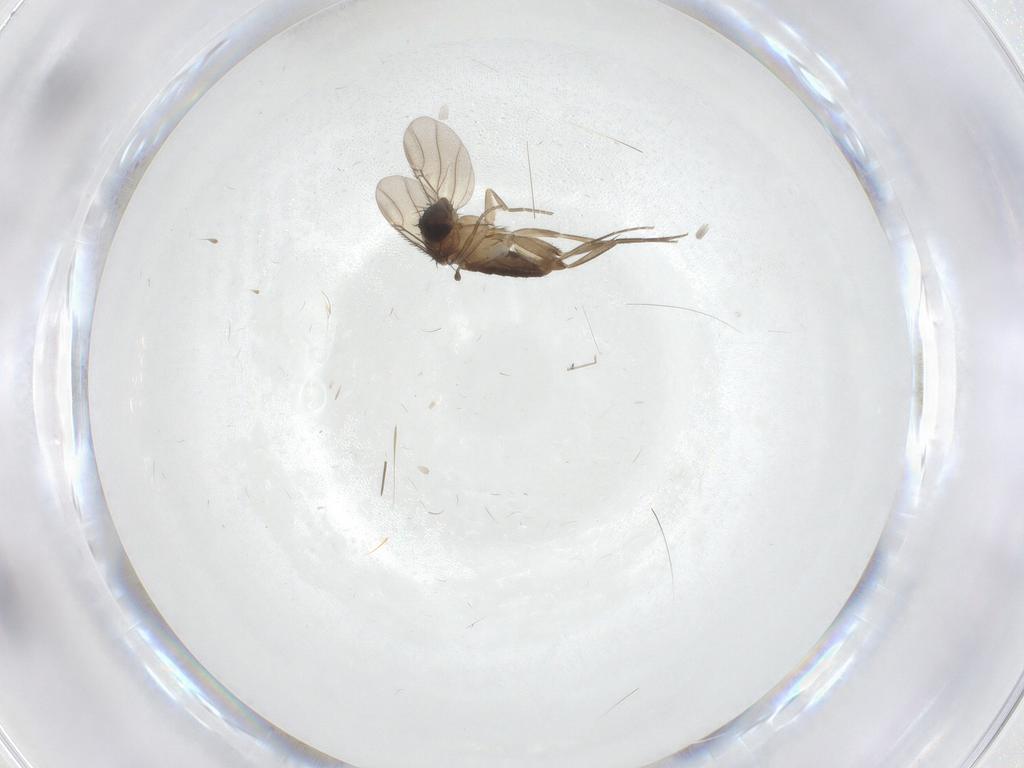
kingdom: Animalia
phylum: Arthropoda
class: Insecta
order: Diptera
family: Phoridae
